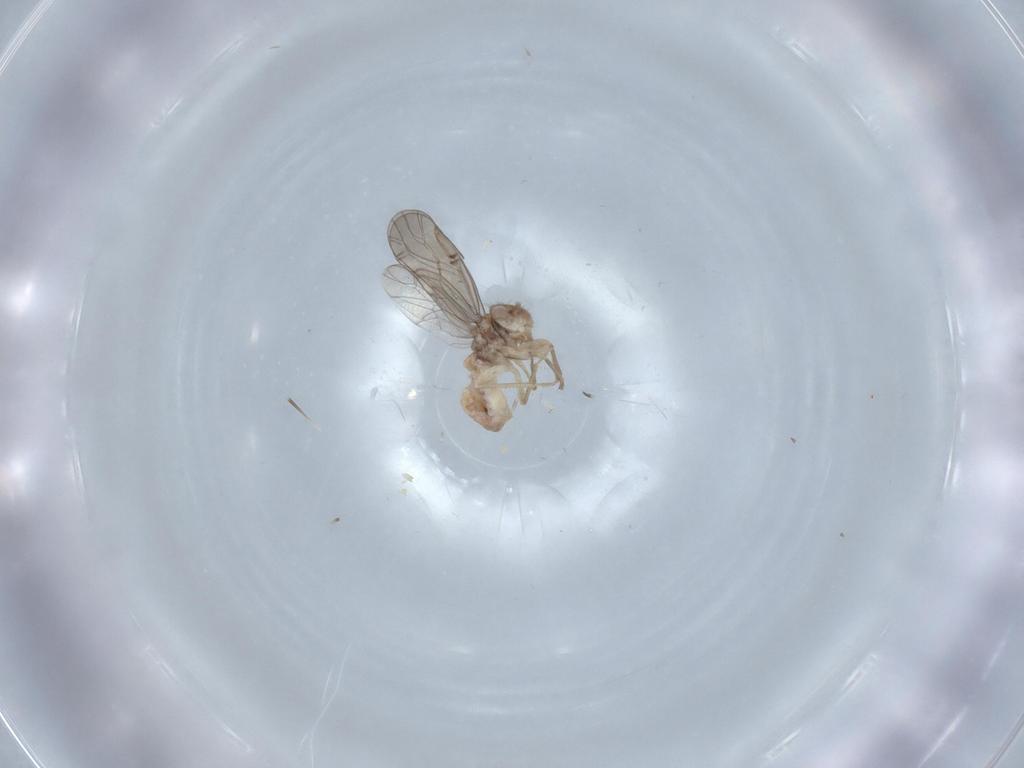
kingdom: Animalia
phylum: Arthropoda
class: Insecta
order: Psocodea
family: Ectopsocidae
